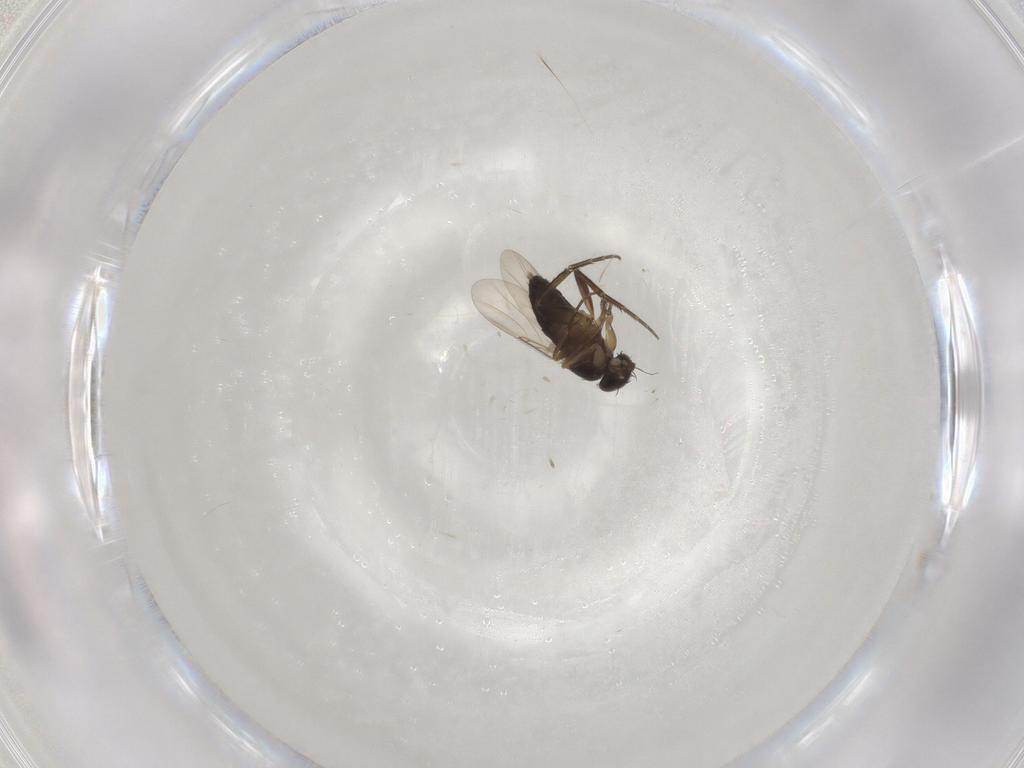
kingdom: Animalia
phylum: Arthropoda
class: Insecta
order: Diptera
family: Phoridae
